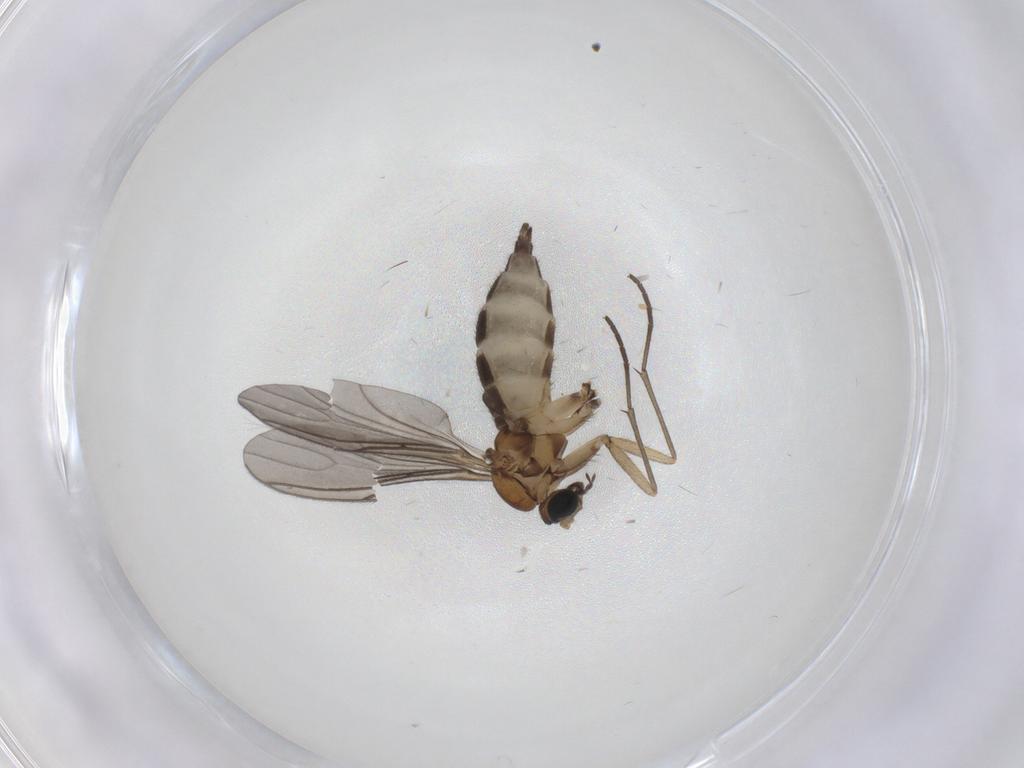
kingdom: Animalia
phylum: Arthropoda
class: Insecta
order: Diptera
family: Sciaridae
